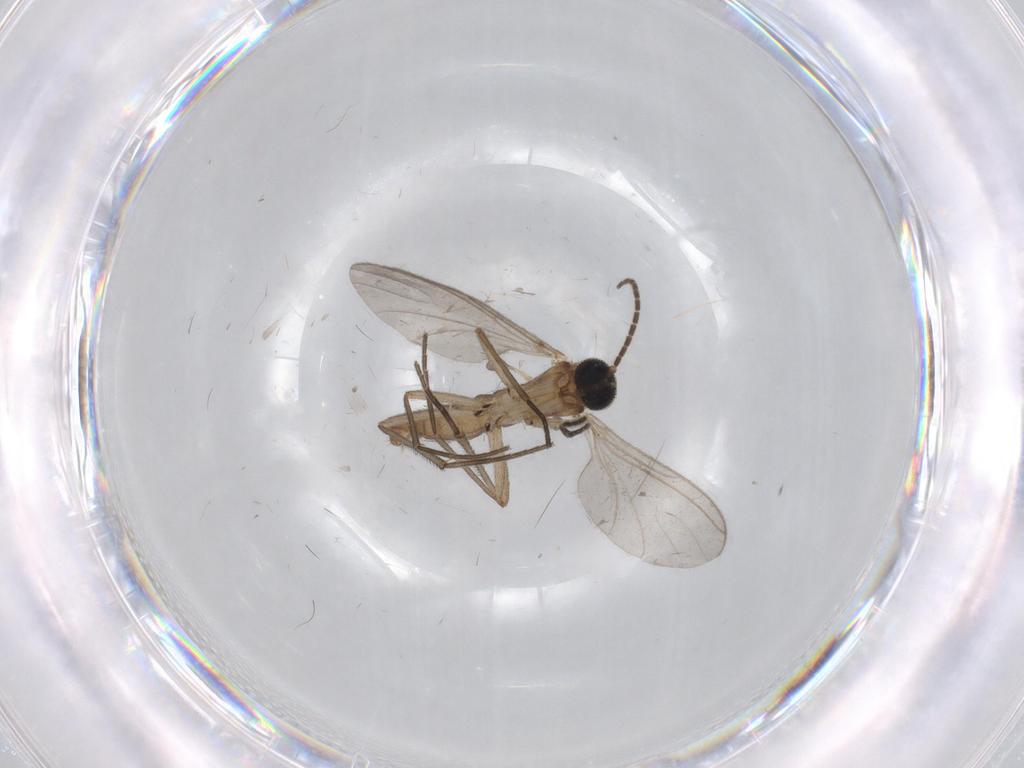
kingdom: Animalia
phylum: Arthropoda
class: Insecta
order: Diptera
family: Sciaridae
